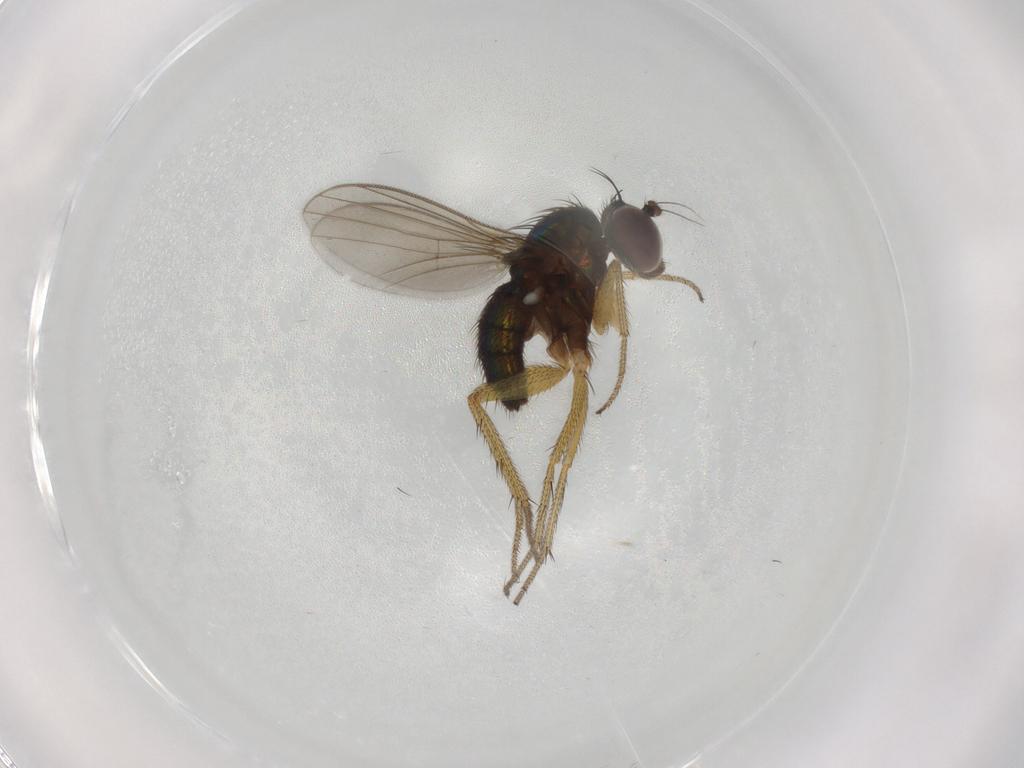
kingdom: Animalia
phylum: Arthropoda
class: Insecta
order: Diptera
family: Dolichopodidae
